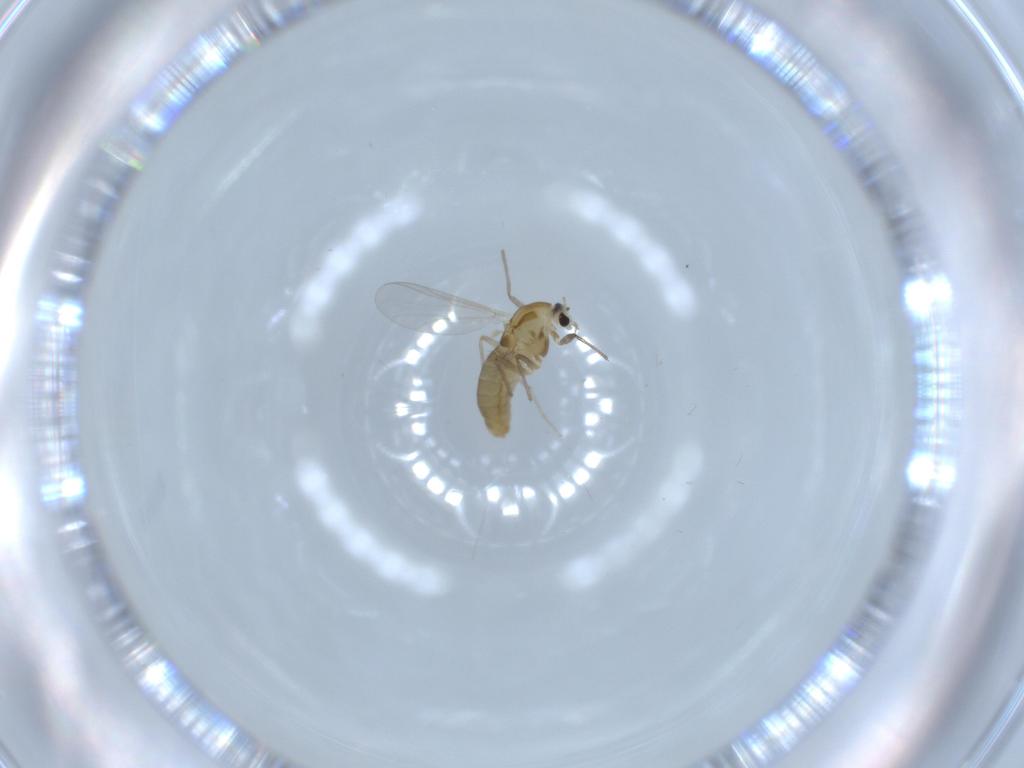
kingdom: Animalia
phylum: Arthropoda
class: Insecta
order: Diptera
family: Chironomidae
